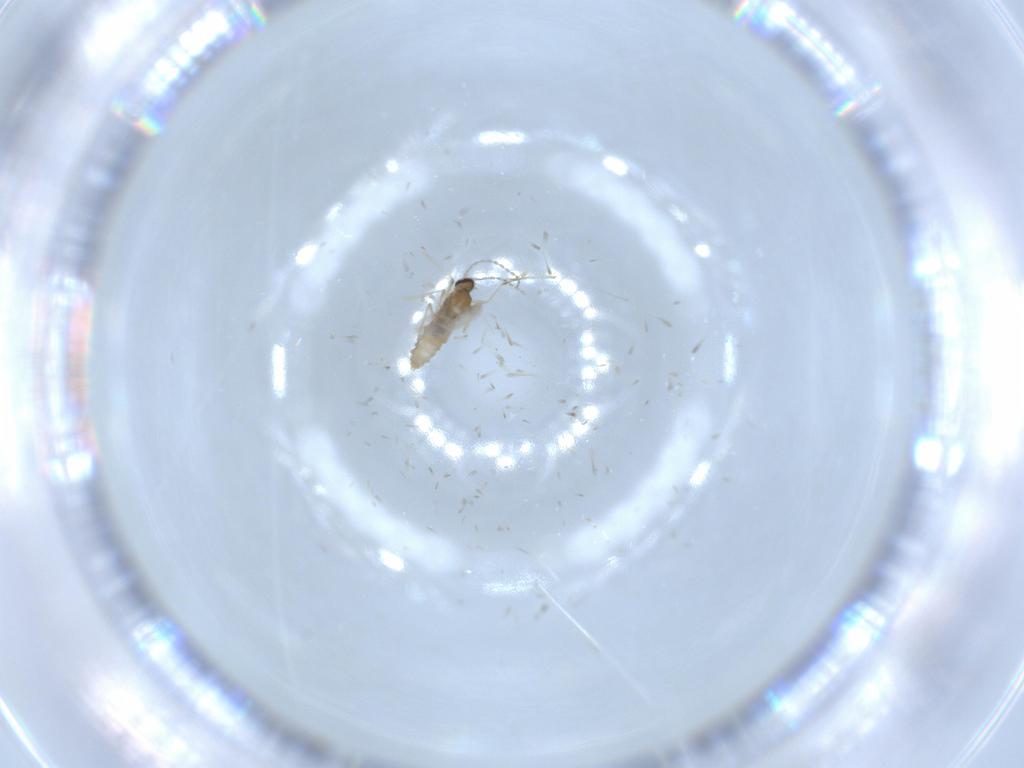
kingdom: Animalia
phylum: Arthropoda
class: Insecta
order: Diptera
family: Cecidomyiidae
